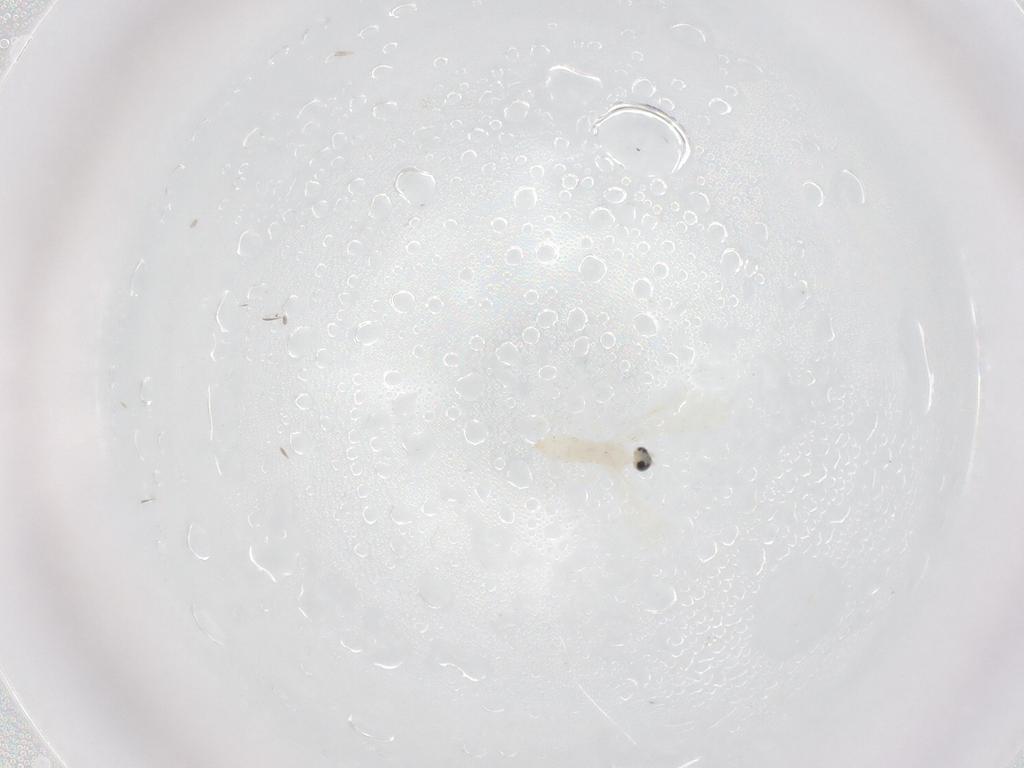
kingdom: Animalia
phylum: Arthropoda
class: Insecta
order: Diptera
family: Cecidomyiidae
